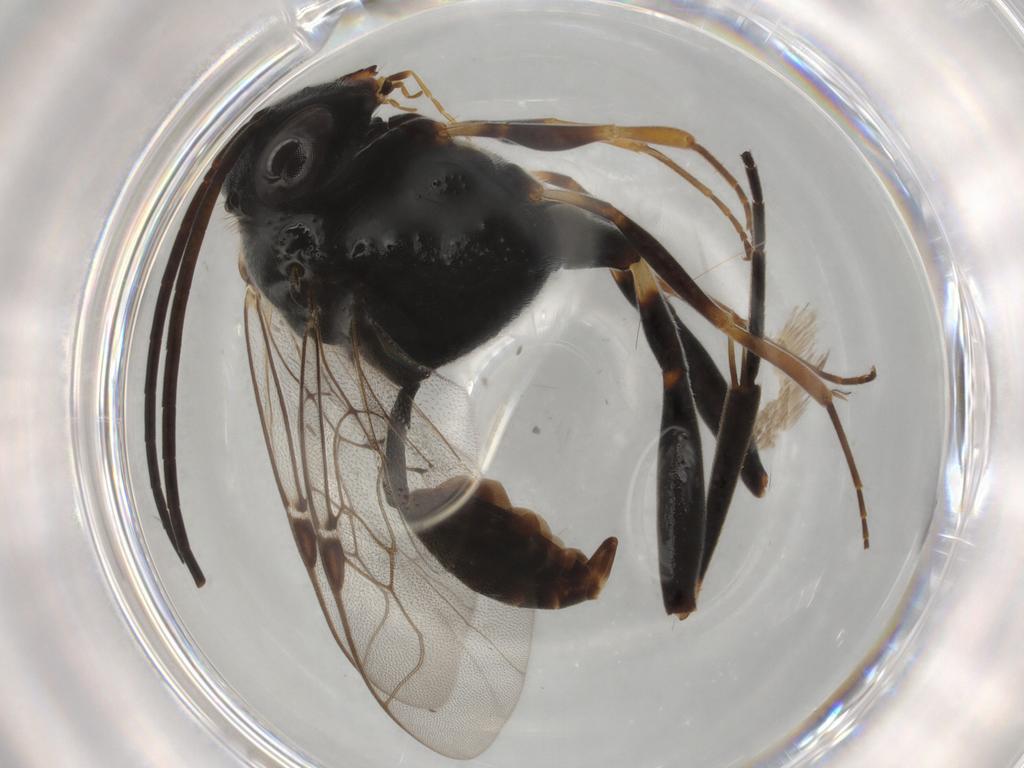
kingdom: Animalia
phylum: Arthropoda
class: Insecta
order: Hymenoptera
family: Evaniidae
